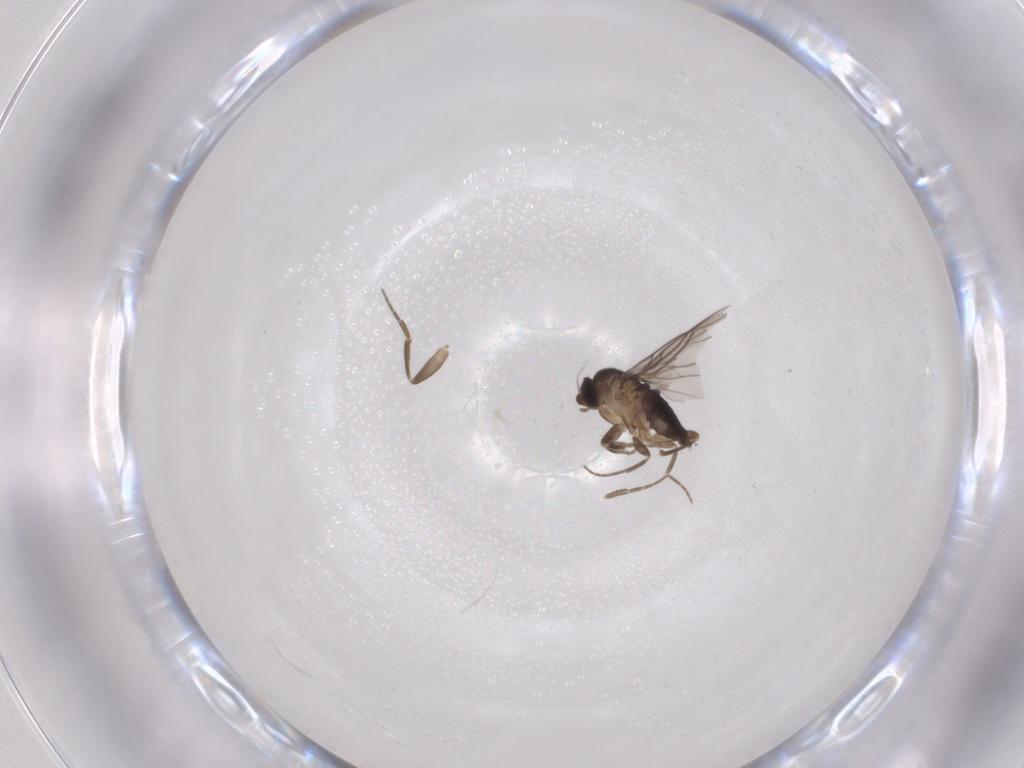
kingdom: Animalia
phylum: Arthropoda
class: Insecta
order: Diptera
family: Phoridae
